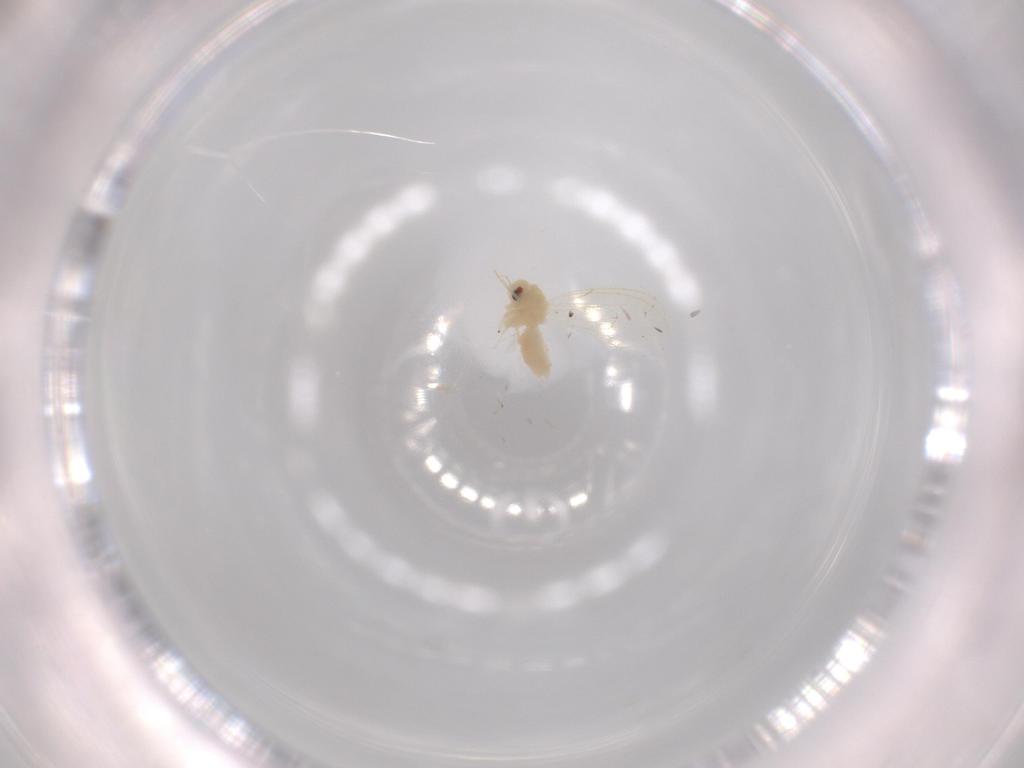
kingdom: Animalia
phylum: Arthropoda
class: Insecta
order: Hemiptera
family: Aleyrodidae
